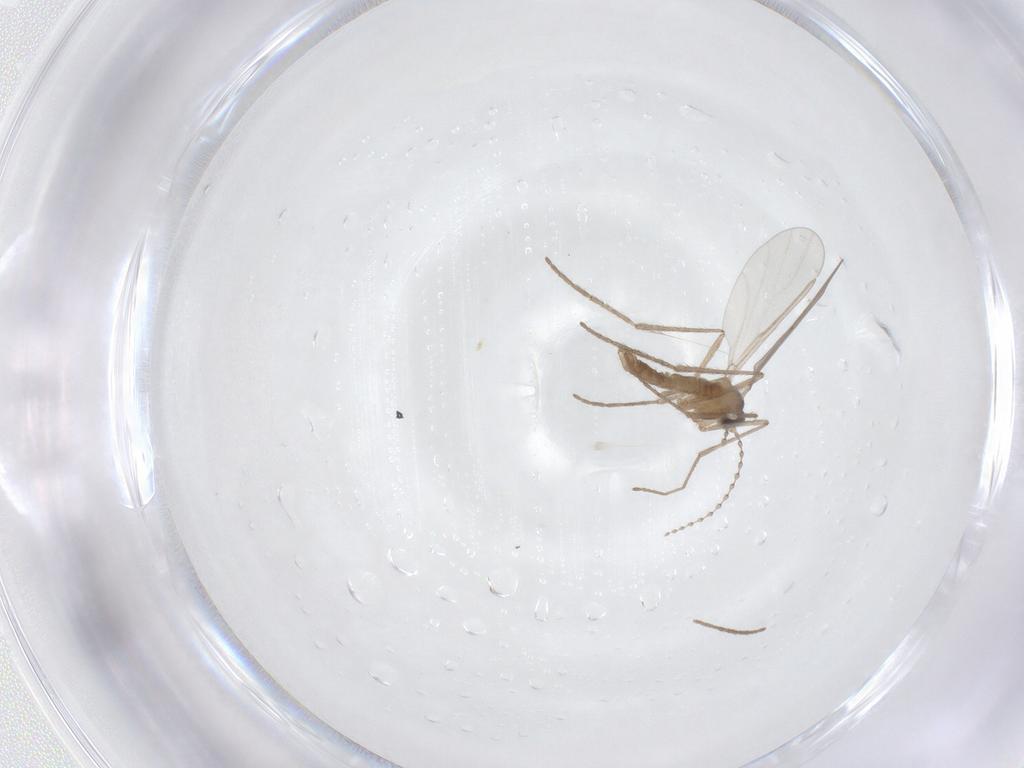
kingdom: Animalia
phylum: Arthropoda
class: Insecta
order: Diptera
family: Cecidomyiidae
